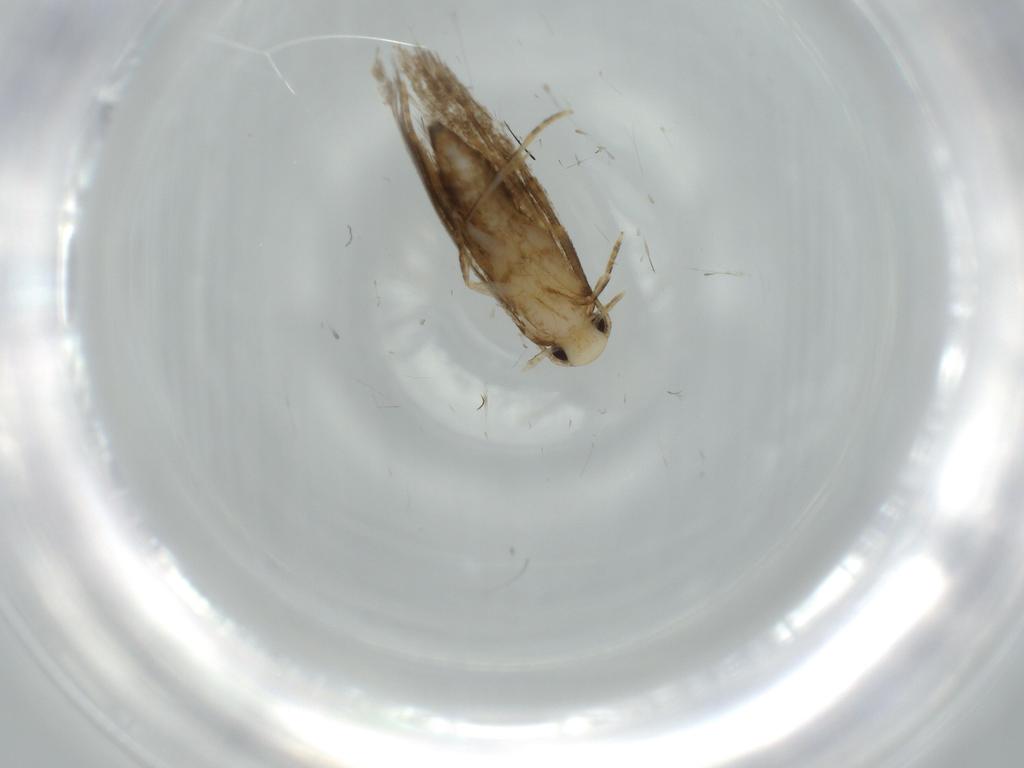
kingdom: Animalia
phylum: Arthropoda
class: Insecta
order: Lepidoptera
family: Tineidae
